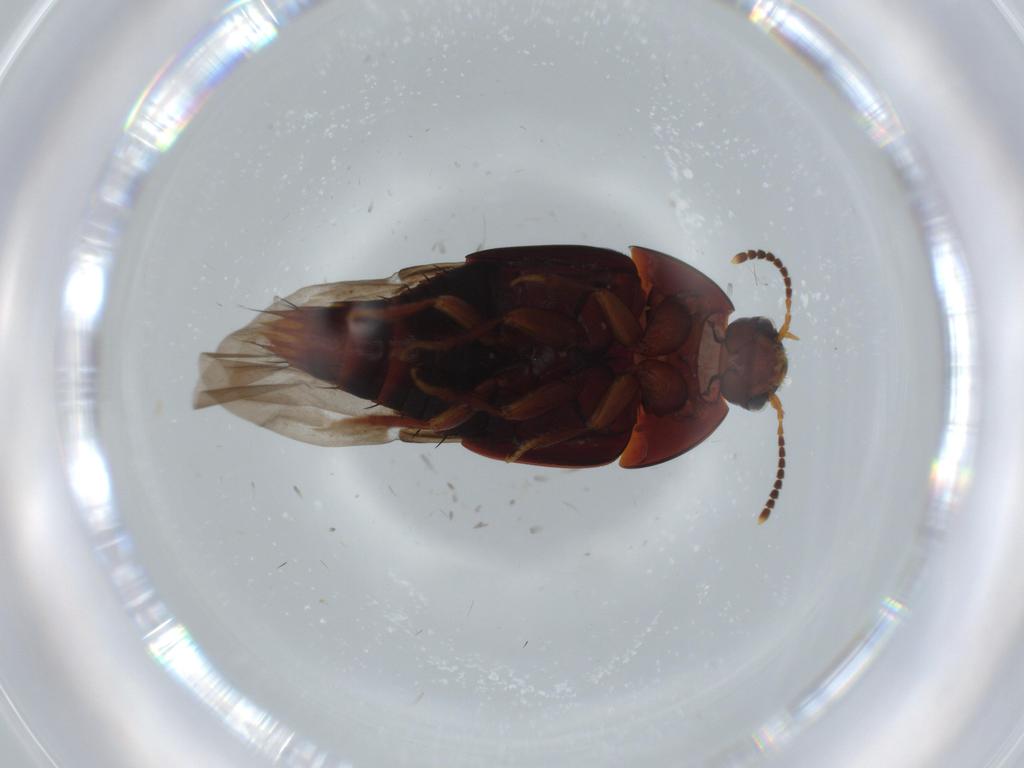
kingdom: Animalia
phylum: Arthropoda
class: Insecta
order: Coleoptera
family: Staphylinidae
